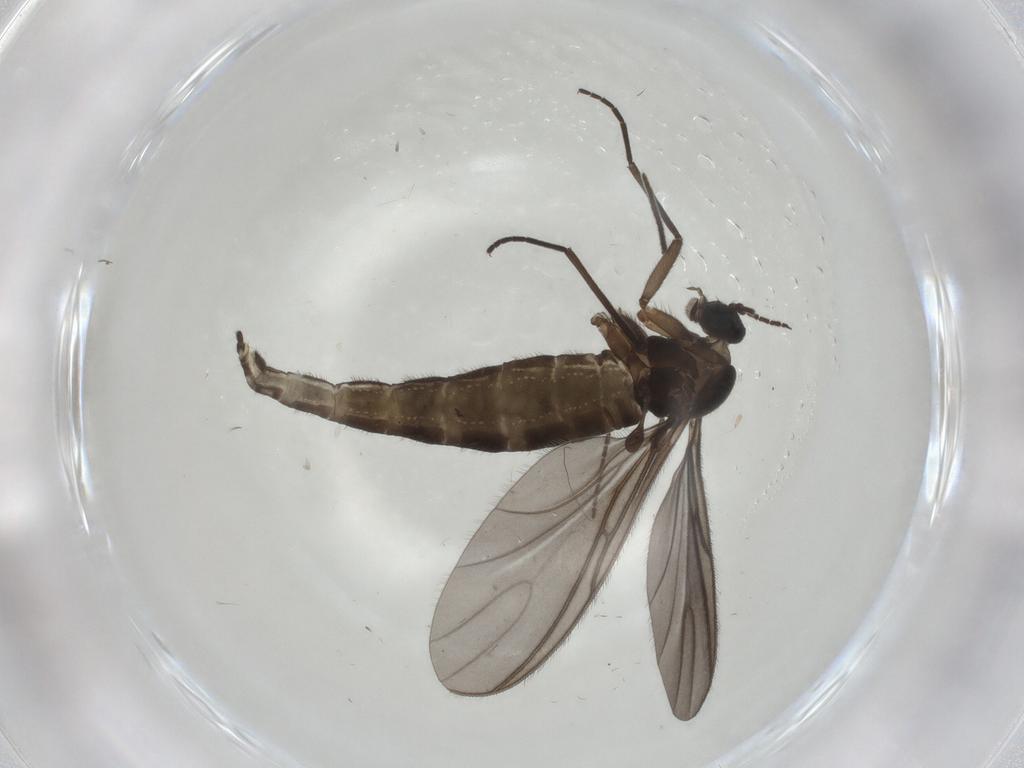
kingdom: Animalia
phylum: Arthropoda
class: Insecta
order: Diptera
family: Sciaridae
